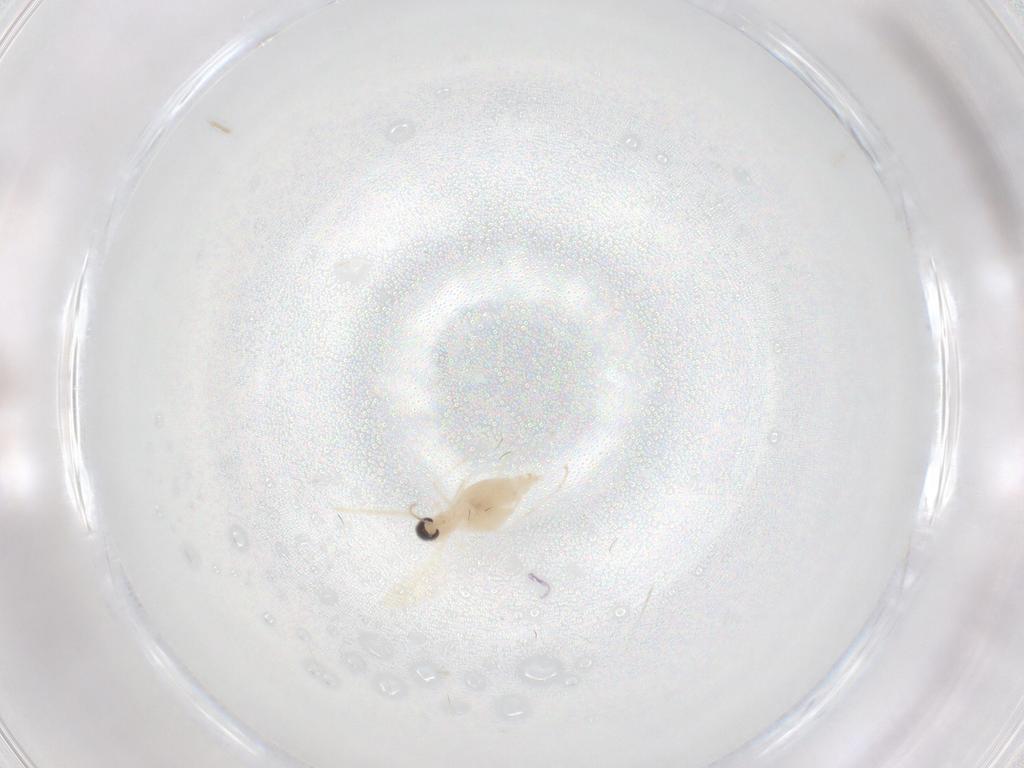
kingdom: Animalia
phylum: Arthropoda
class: Insecta
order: Diptera
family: Cecidomyiidae
